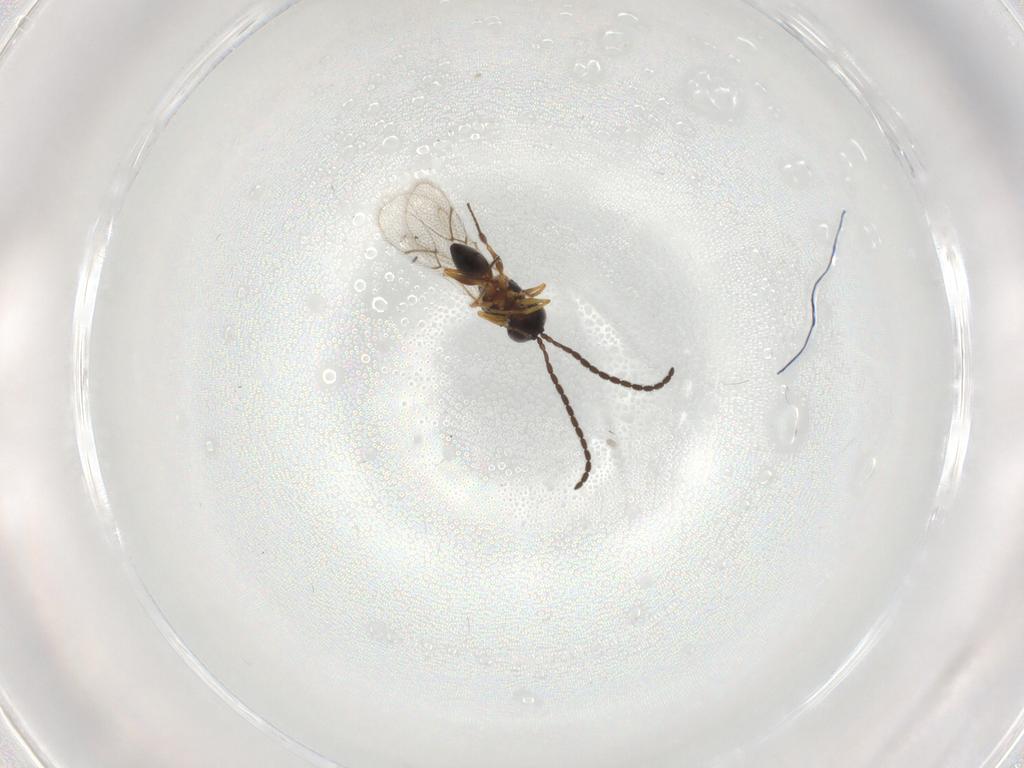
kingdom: Animalia
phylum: Arthropoda
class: Insecta
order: Hymenoptera
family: Figitidae
